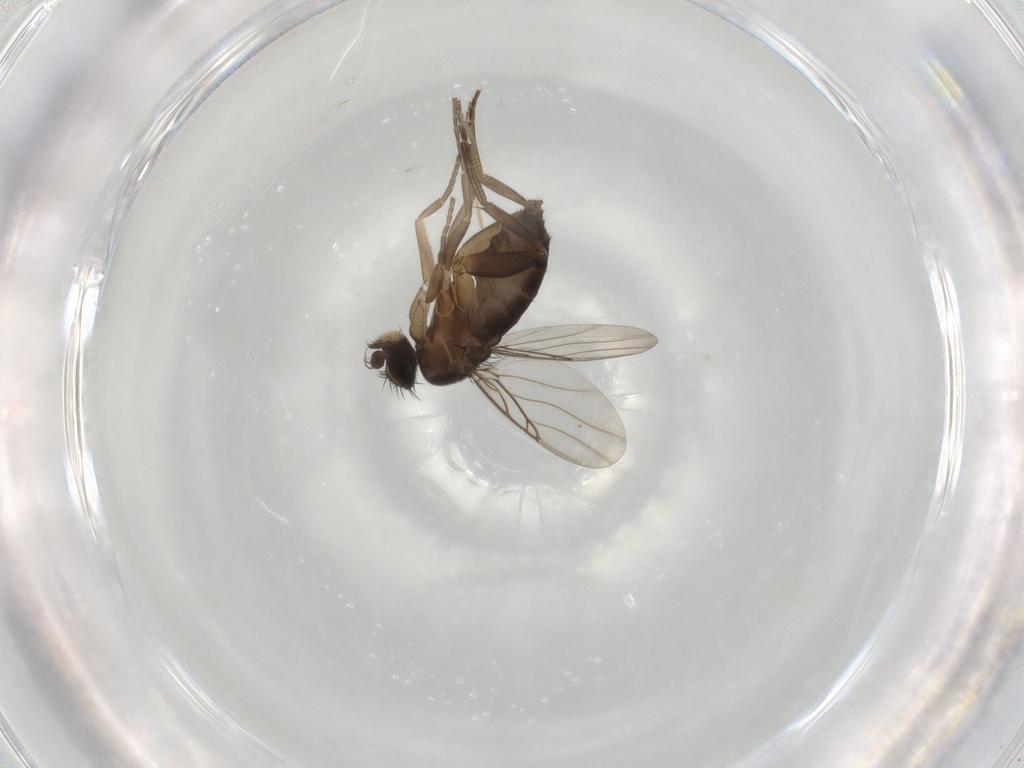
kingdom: Animalia
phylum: Arthropoda
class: Insecta
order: Diptera
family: Phoridae
